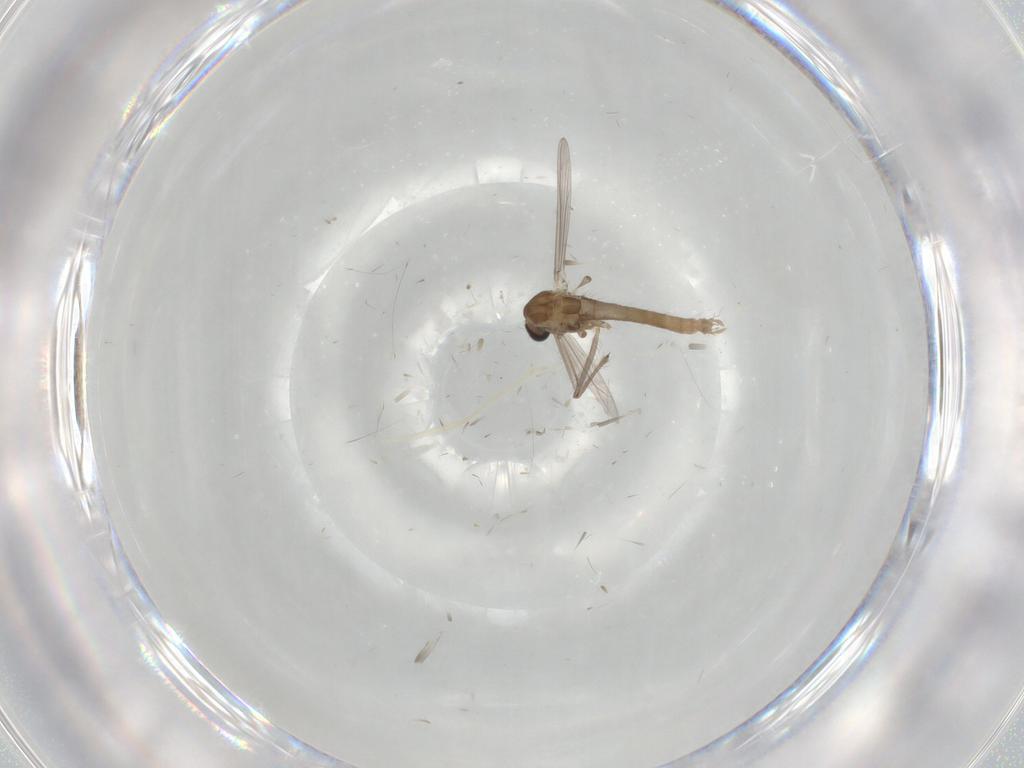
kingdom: Animalia
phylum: Arthropoda
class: Insecta
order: Diptera
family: Chironomidae
